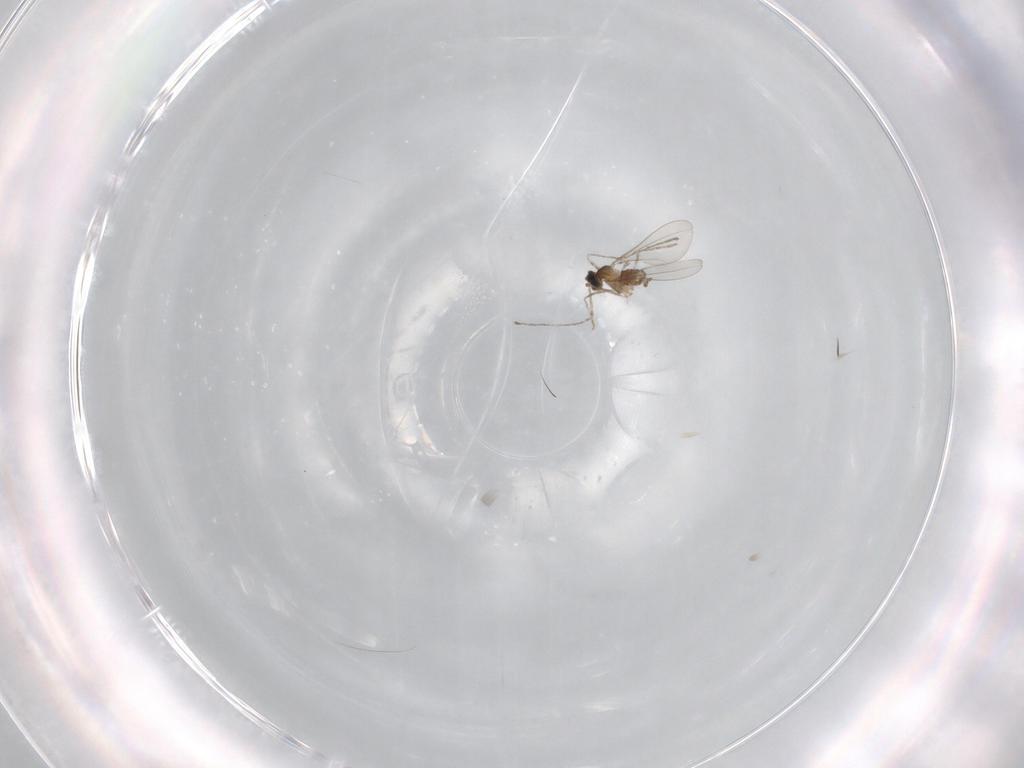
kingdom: Animalia
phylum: Arthropoda
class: Insecta
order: Diptera
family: Cecidomyiidae
